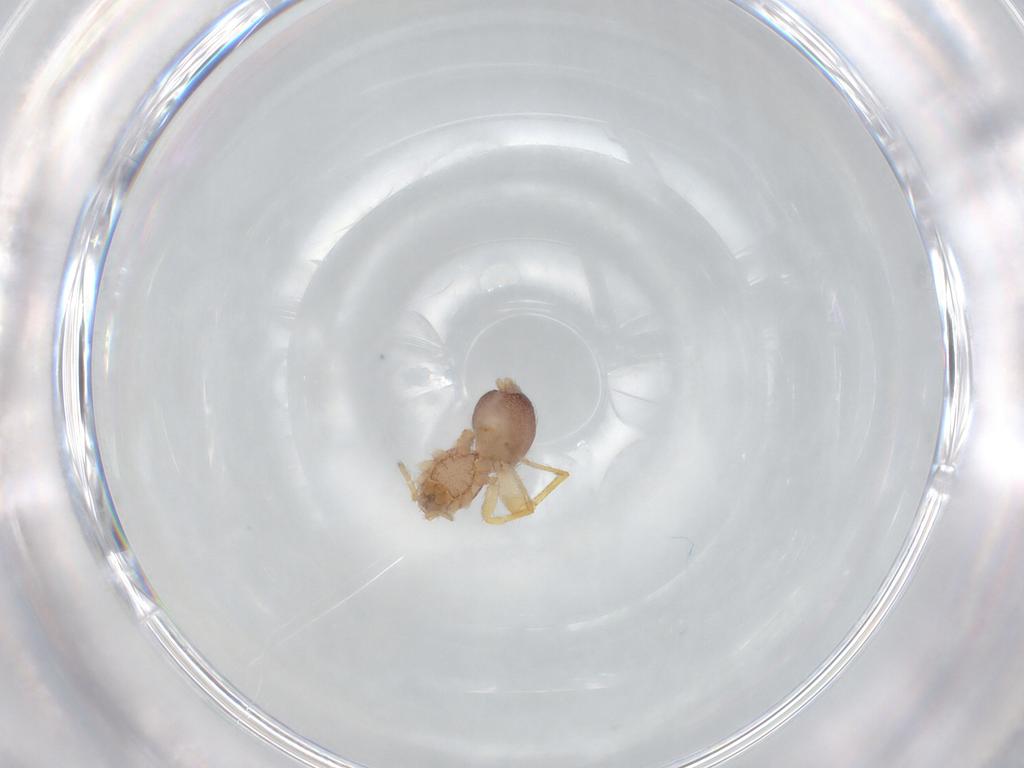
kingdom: Animalia
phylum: Arthropoda
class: Arachnida
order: Araneae
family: Idiopidae
